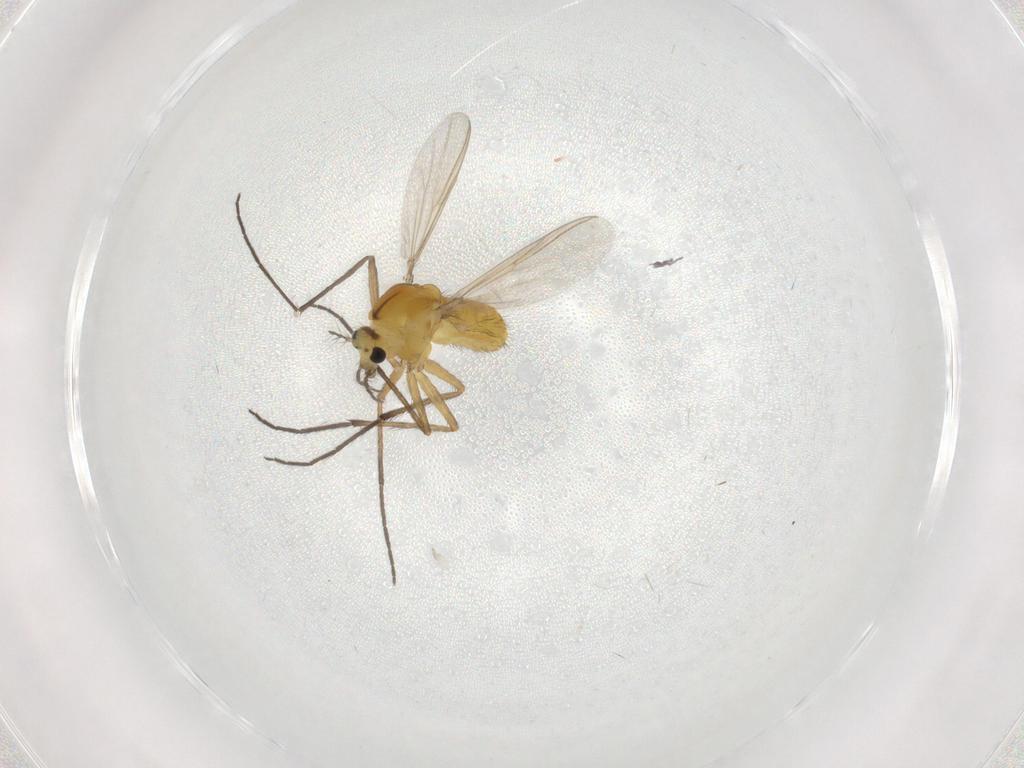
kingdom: Animalia
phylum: Arthropoda
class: Insecta
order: Diptera
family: Chironomidae
